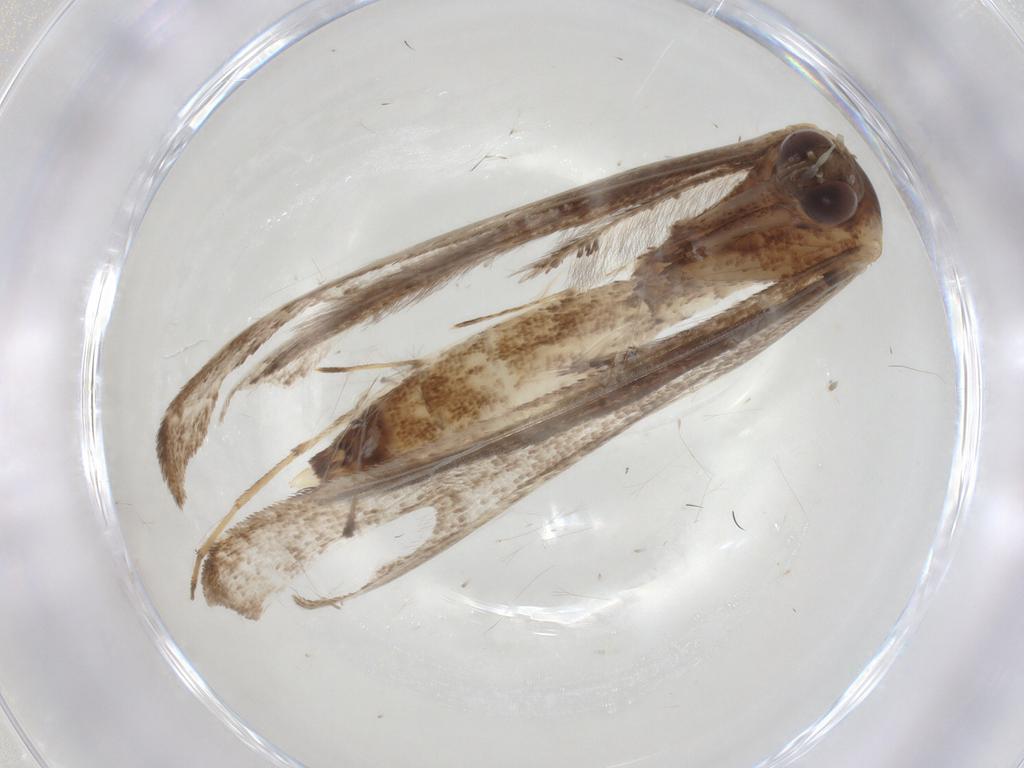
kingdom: Animalia
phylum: Arthropoda
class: Insecta
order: Lepidoptera
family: Pterophoridae
